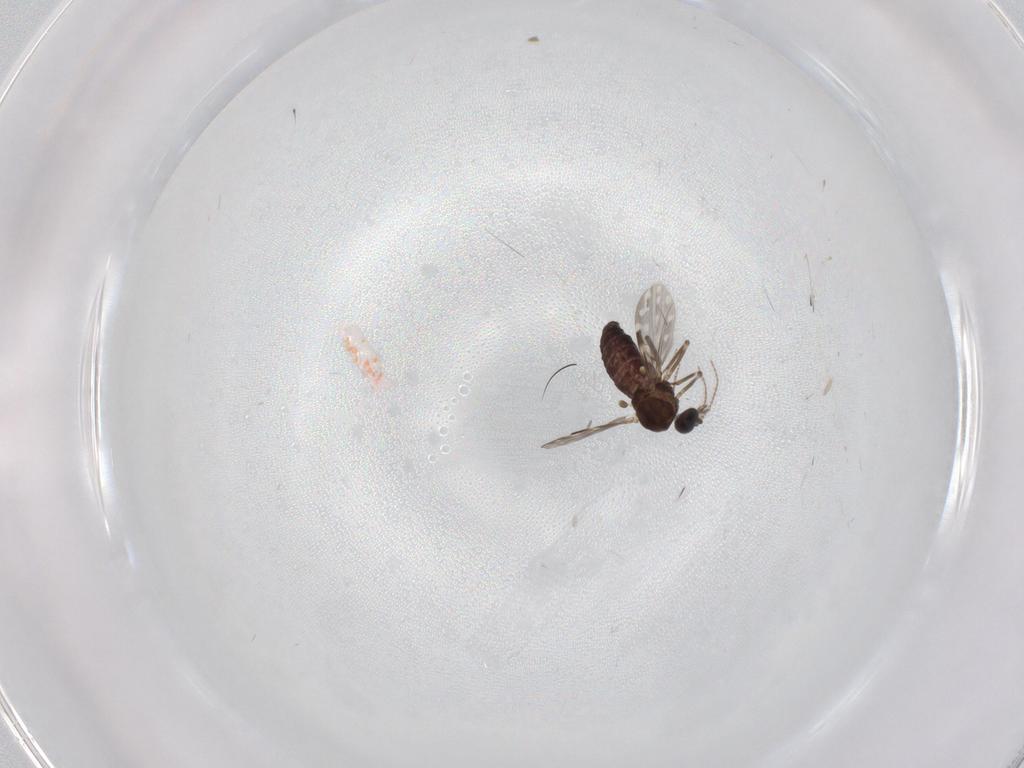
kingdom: Animalia
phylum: Arthropoda
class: Insecta
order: Diptera
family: Ceratopogonidae
